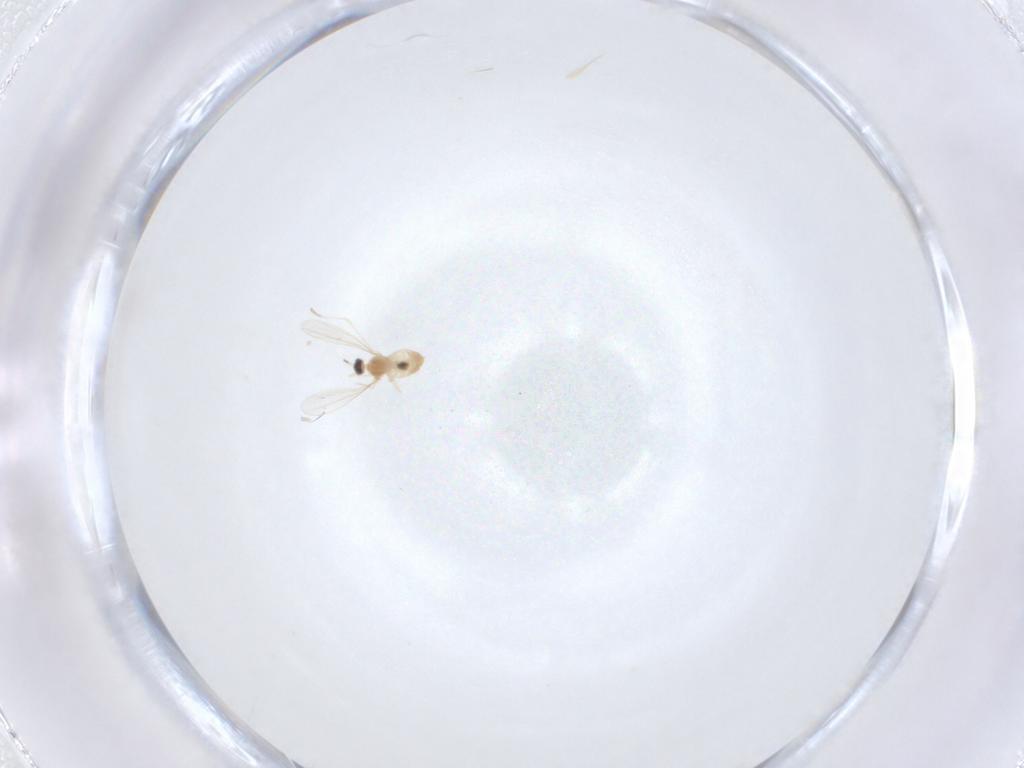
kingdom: Animalia
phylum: Arthropoda
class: Insecta
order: Diptera
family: Cecidomyiidae
